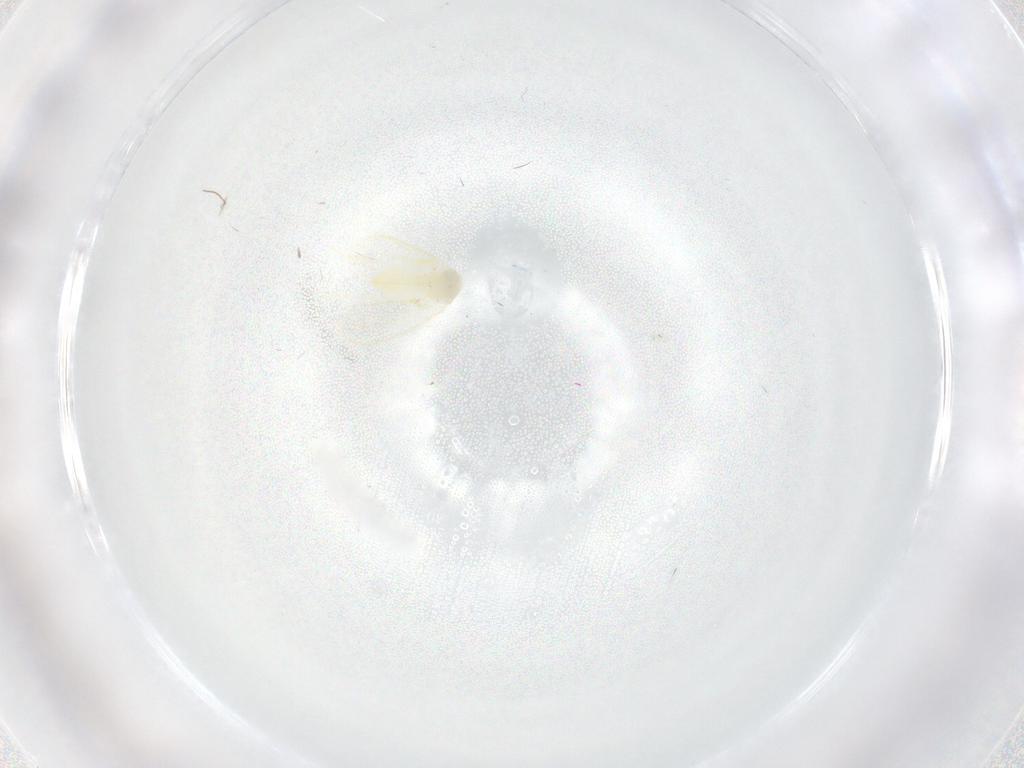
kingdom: Animalia
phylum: Arthropoda
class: Insecta
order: Hemiptera
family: Aleyrodidae
